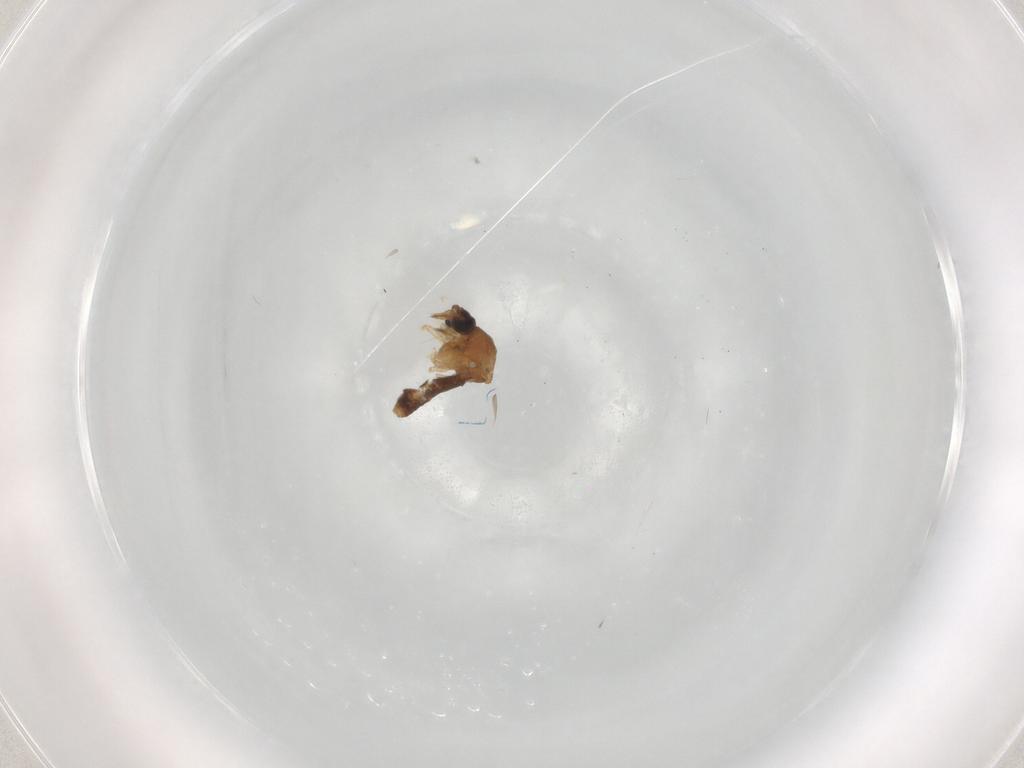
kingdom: Animalia
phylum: Arthropoda
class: Insecta
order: Diptera
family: Ceratopogonidae
